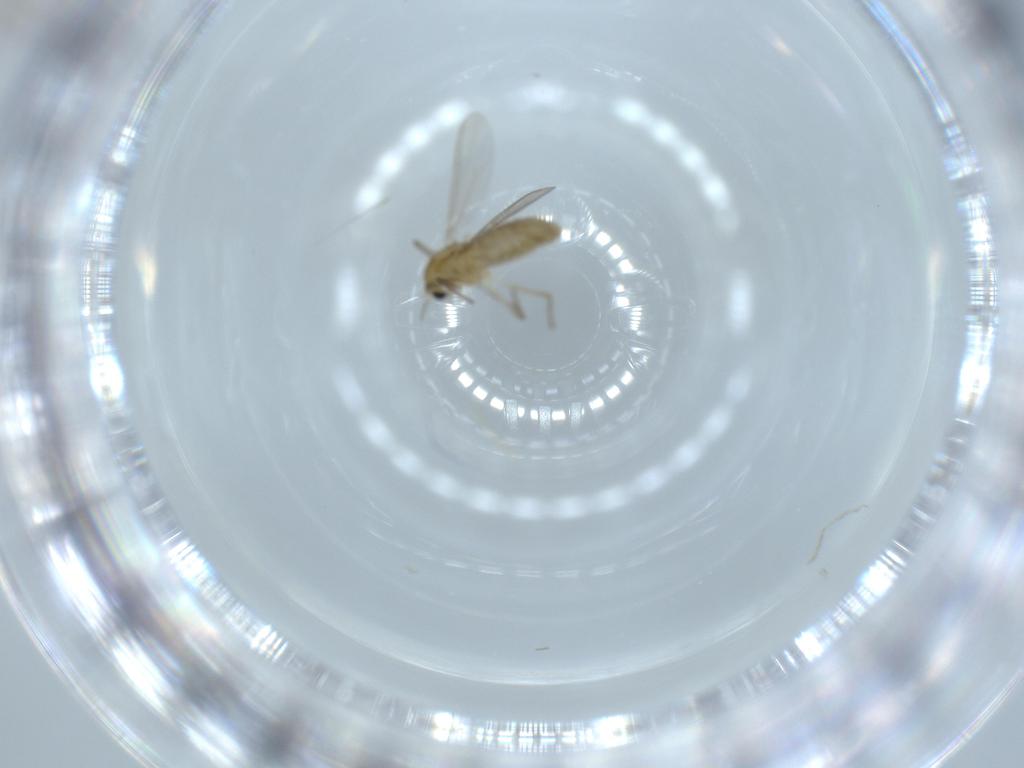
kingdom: Animalia
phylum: Arthropoda
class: Insecta
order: Diptera
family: Chironomidae
